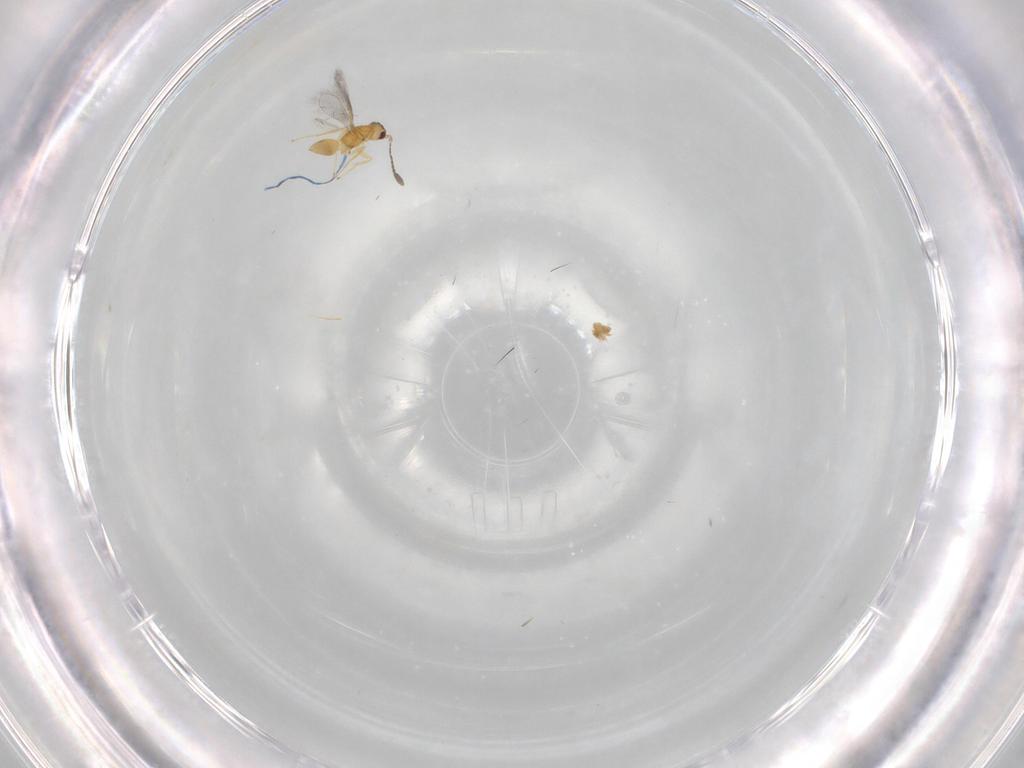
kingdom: Animalia
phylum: Arthropoda
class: Insecta
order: Hymenoptera
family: Mymaridae
